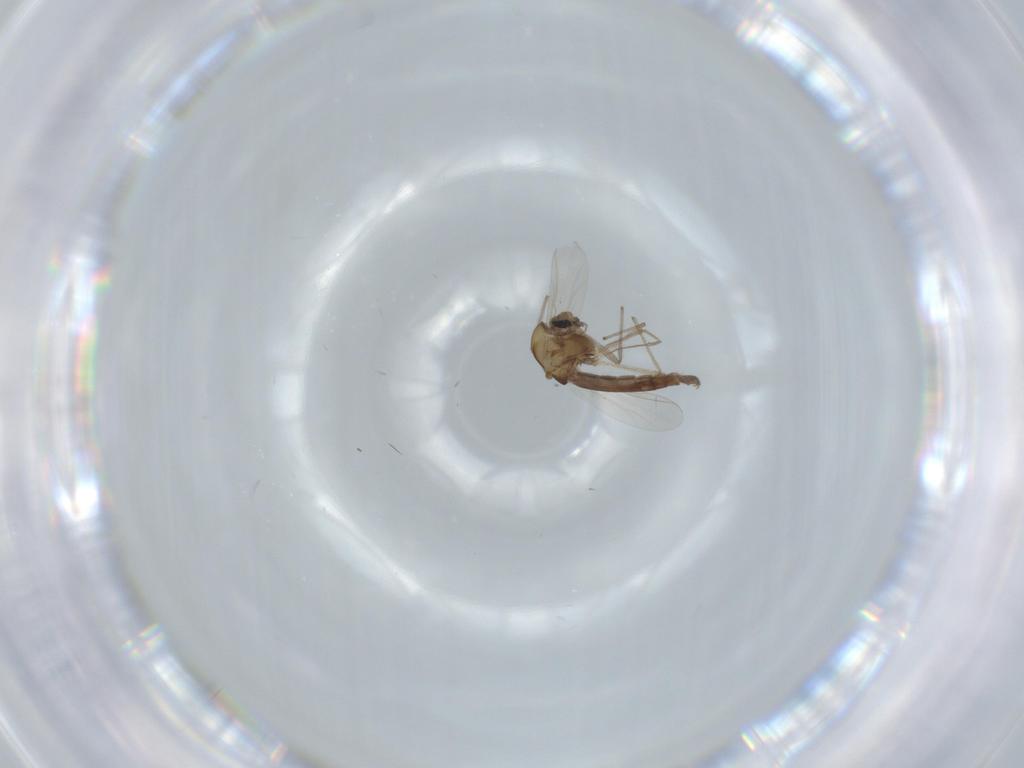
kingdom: Animalia
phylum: Arthropoda
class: Insecta
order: Diptera
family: Chironomidae
